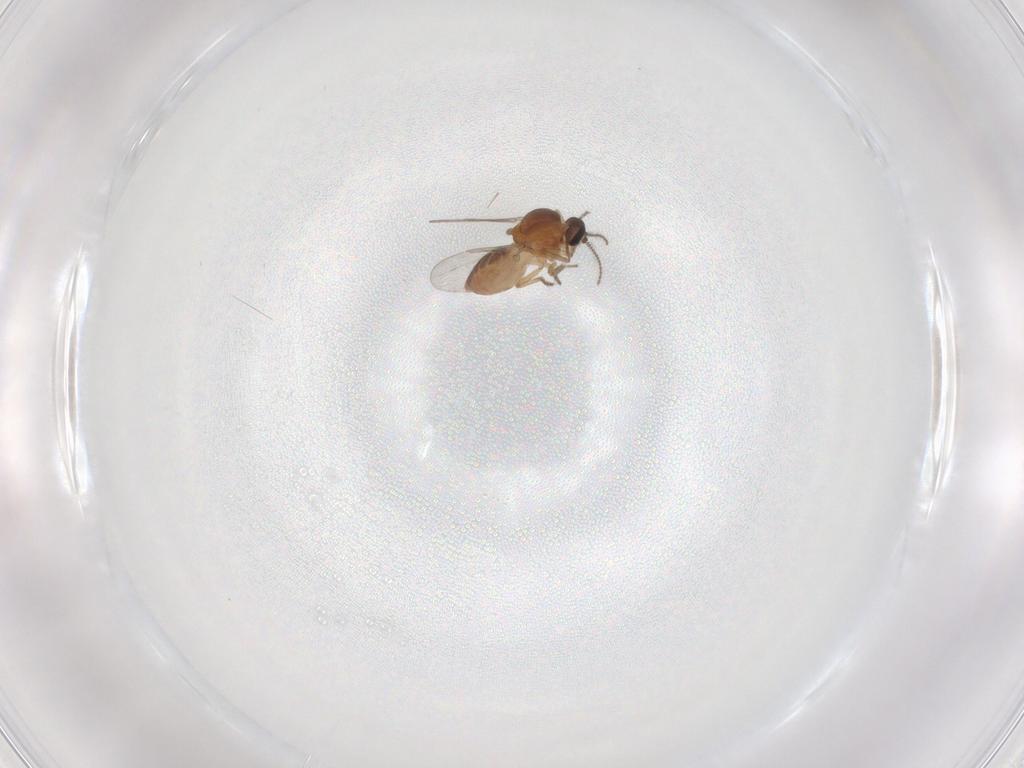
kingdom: Animalia
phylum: Arthropoda
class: Insecta
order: Diptera
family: Ceratopogonidae
